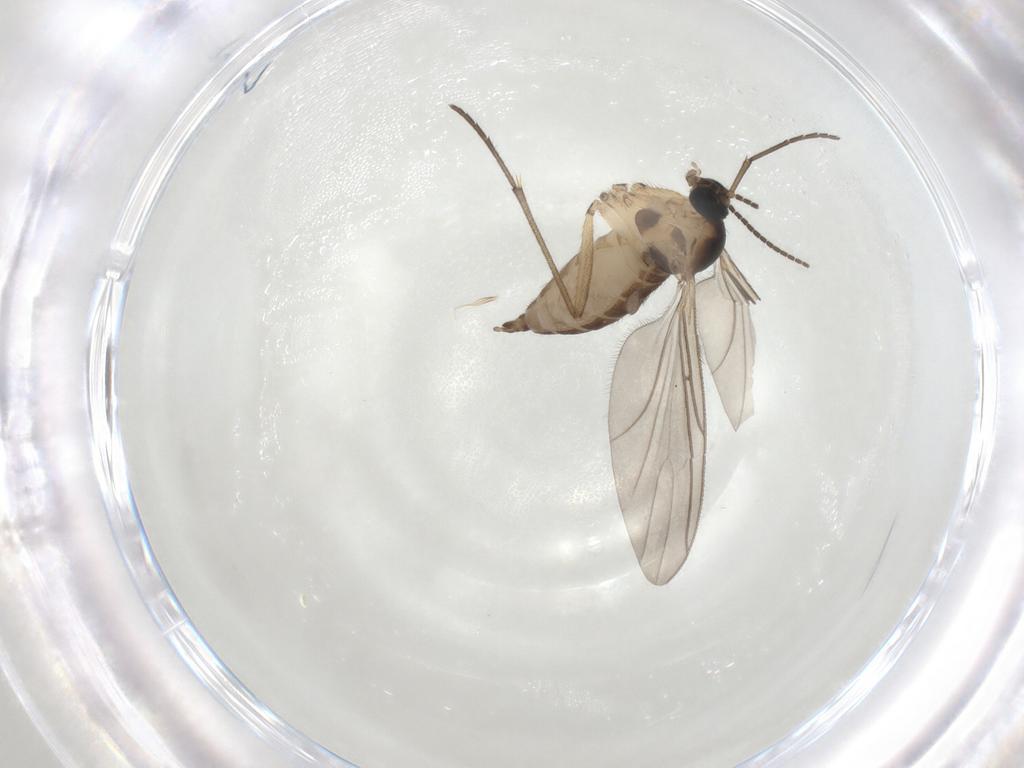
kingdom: Animalia
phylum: Arthropoda
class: Insecta
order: Diptera
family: Sciaridae
